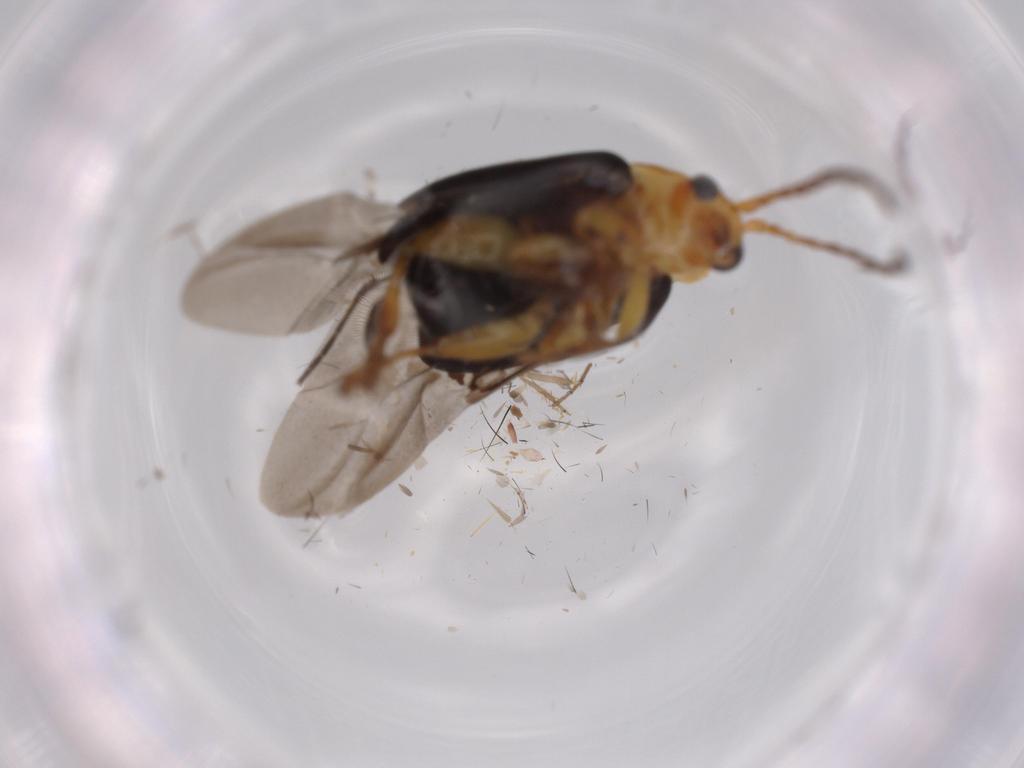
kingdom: Animalia
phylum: Arthropoda
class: Insecta
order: Coleoptera
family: Chrysomelidae
